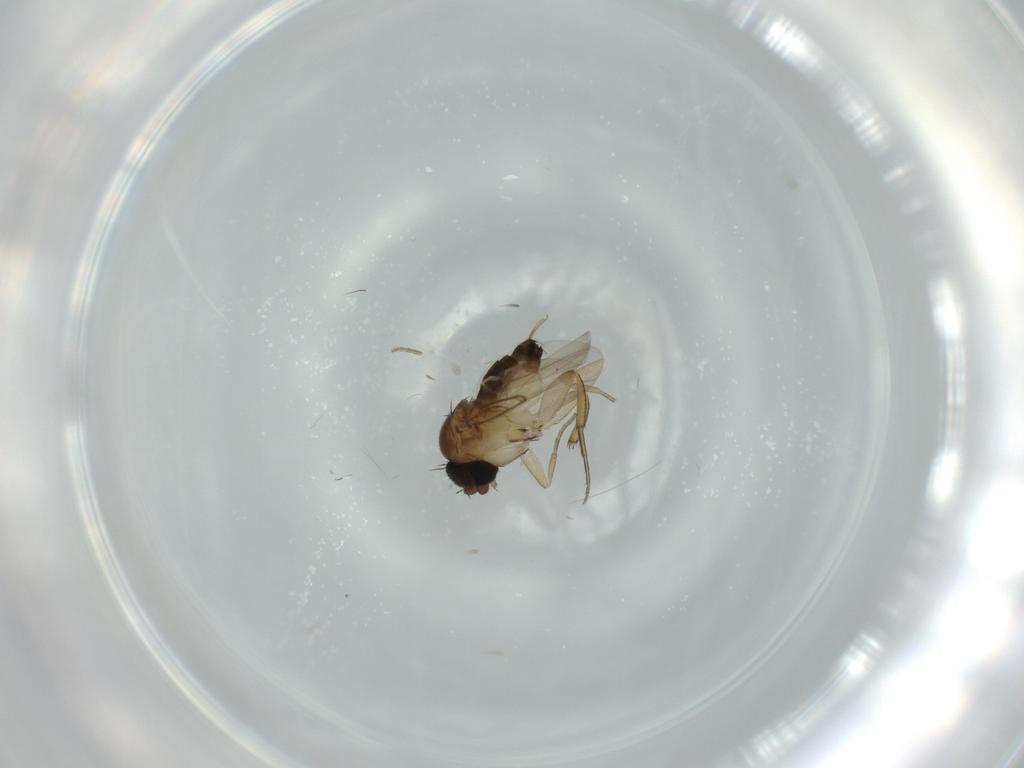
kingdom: Animalia
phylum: Arthropoda
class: Insecta
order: Diptera
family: Phoridae
